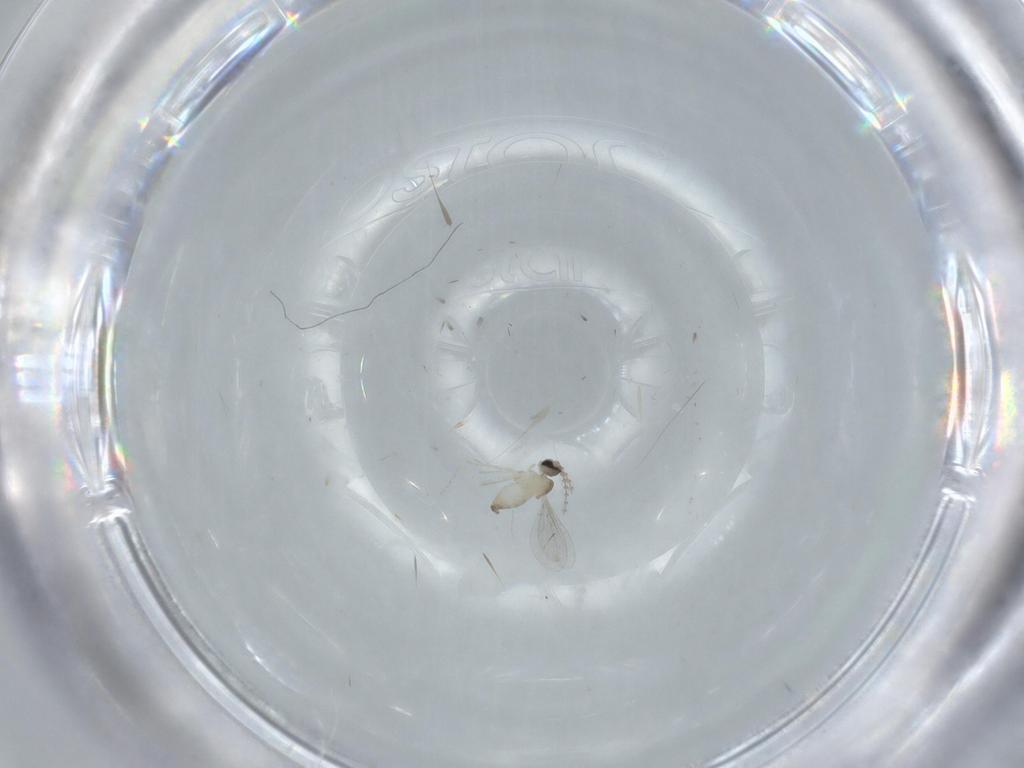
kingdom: Animalia
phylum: Arthropoda
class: Insecta
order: Diptera
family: Cecidomyiidae
